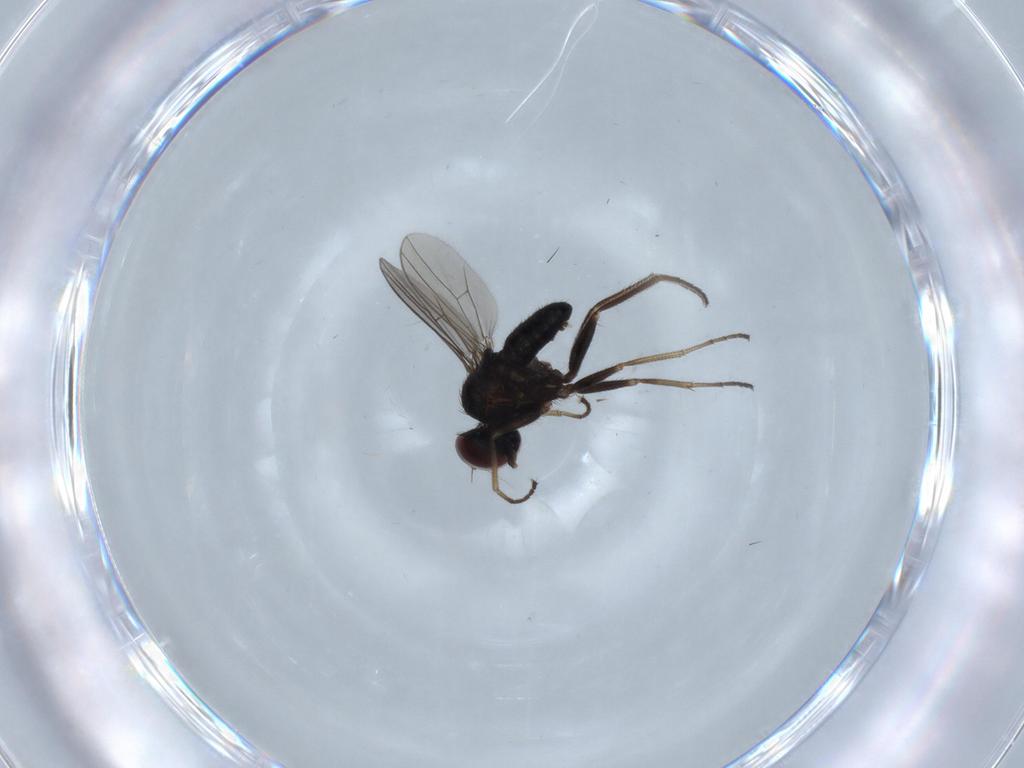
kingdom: Animalia
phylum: Arthropoda
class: Insecta
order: Diptera
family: Dolichopodidae
